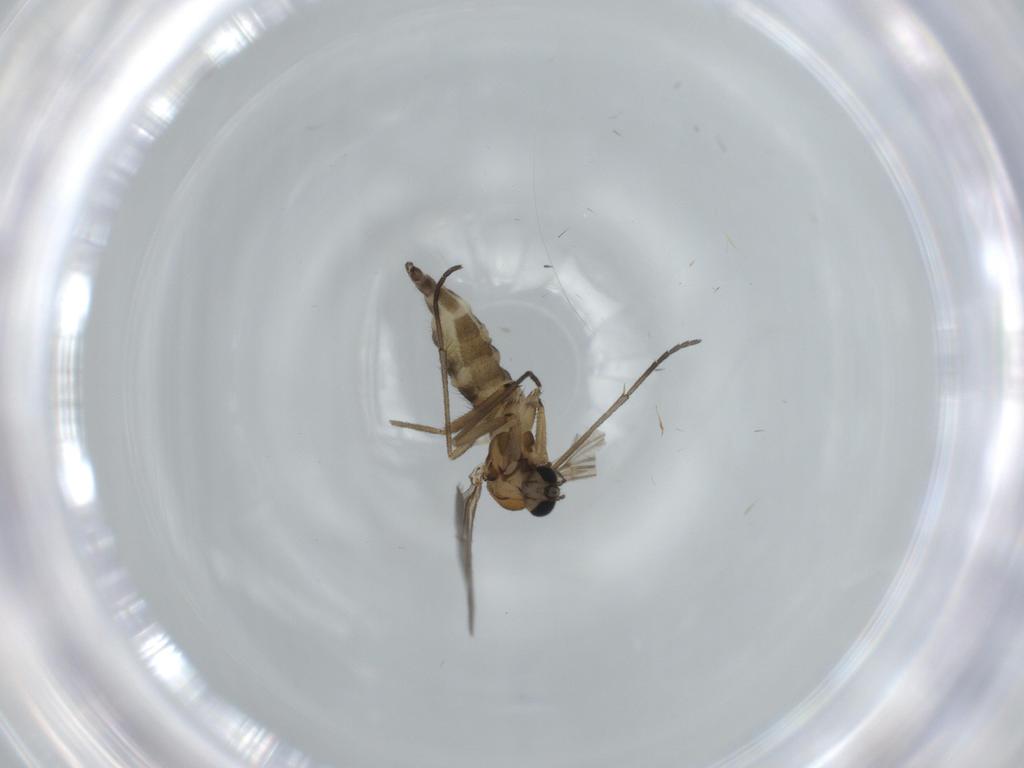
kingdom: Animalia
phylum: Arthropoda
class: Insecta
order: Diptera
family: Sciaridae
